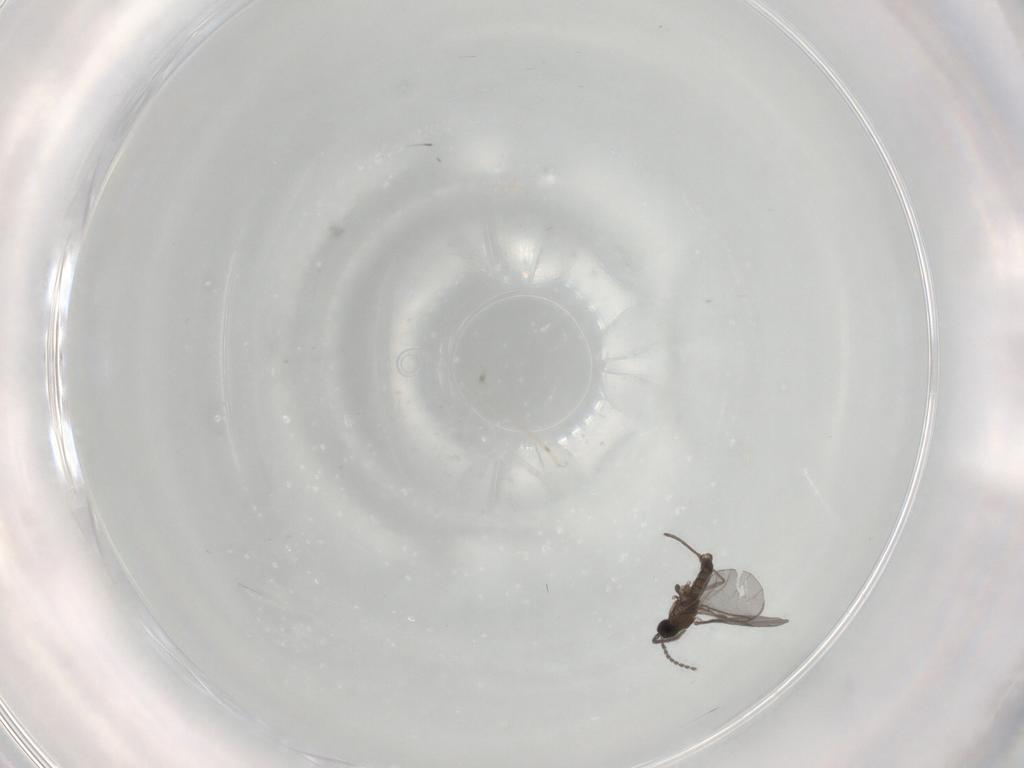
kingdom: Animalia
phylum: Arthropoda
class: Insecta
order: Diptera
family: Sciaridae
